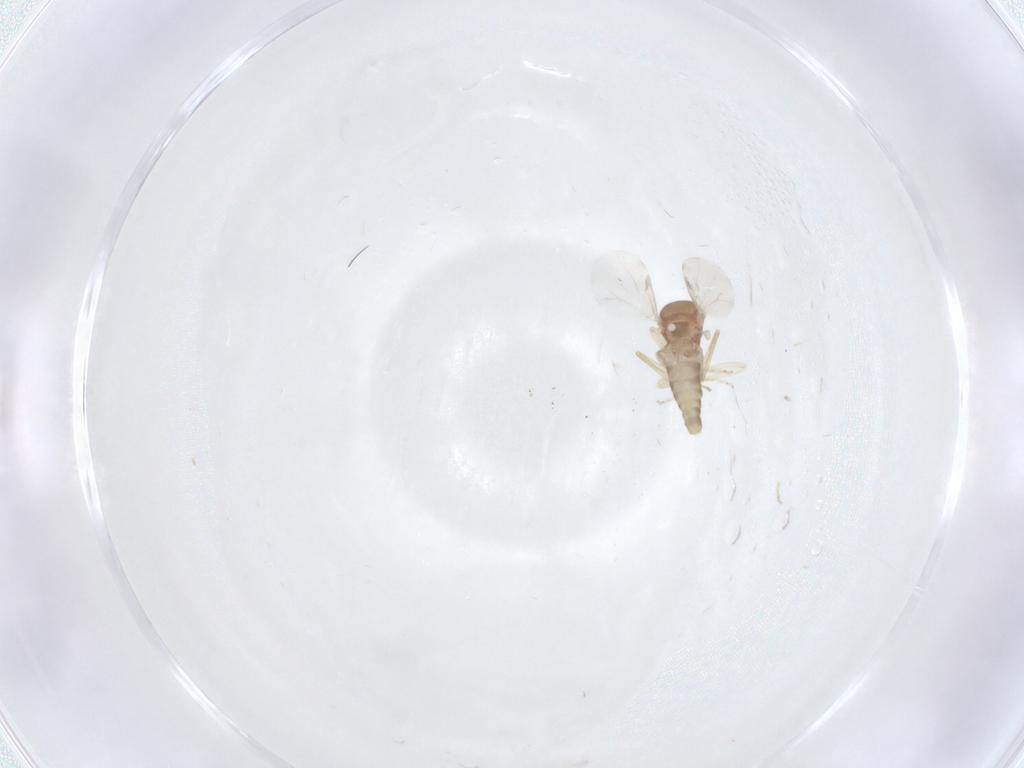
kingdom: Animalia
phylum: Arthropoda
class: Insecta
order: Diptera
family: Ceratopogonidae
